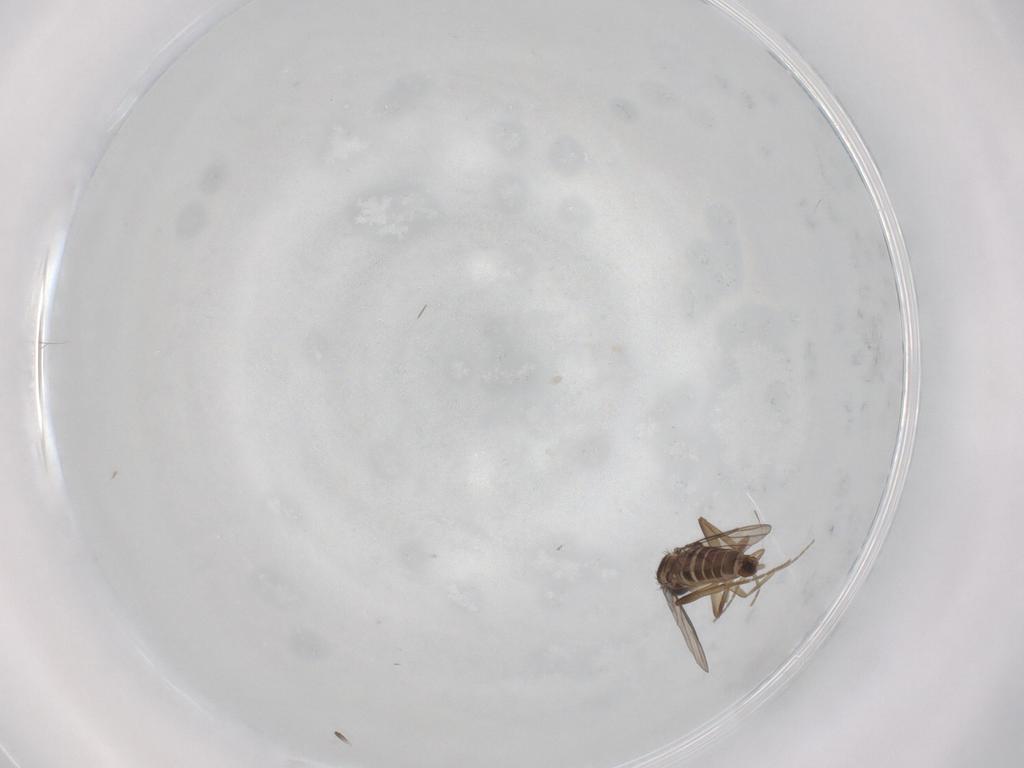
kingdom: Animalia
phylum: Arthropoda
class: Insecta
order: Diptera
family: Phoridae
